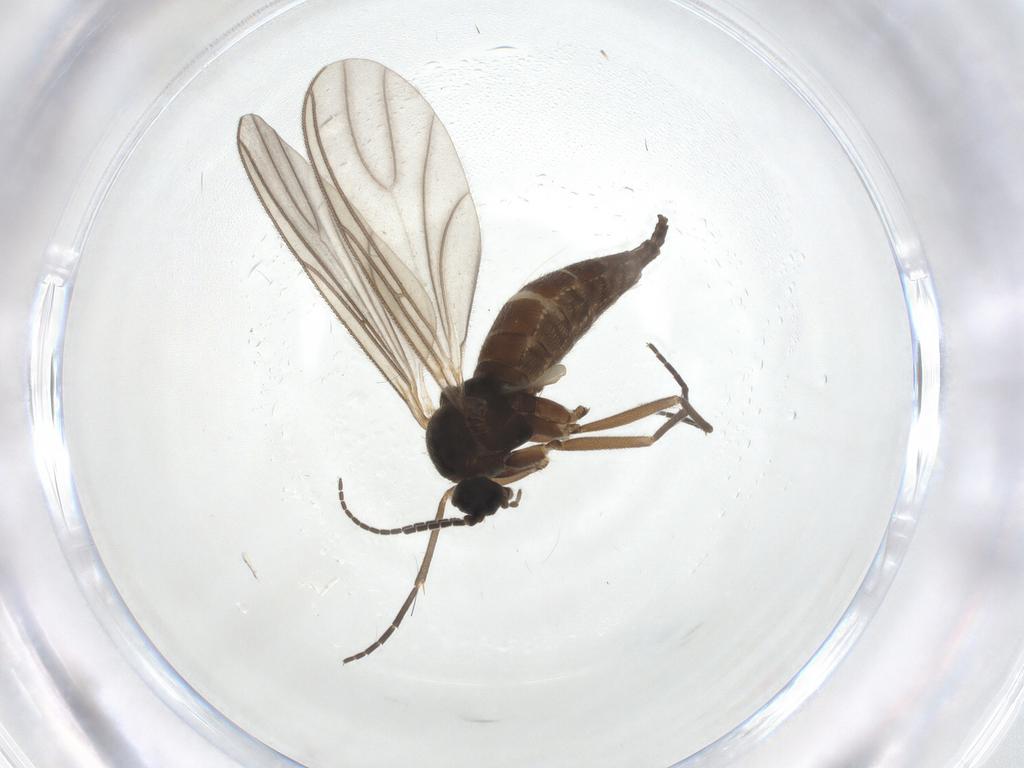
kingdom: Animalia
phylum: Arthropoda
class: Insecta
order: Diptera
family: Sciaridae
